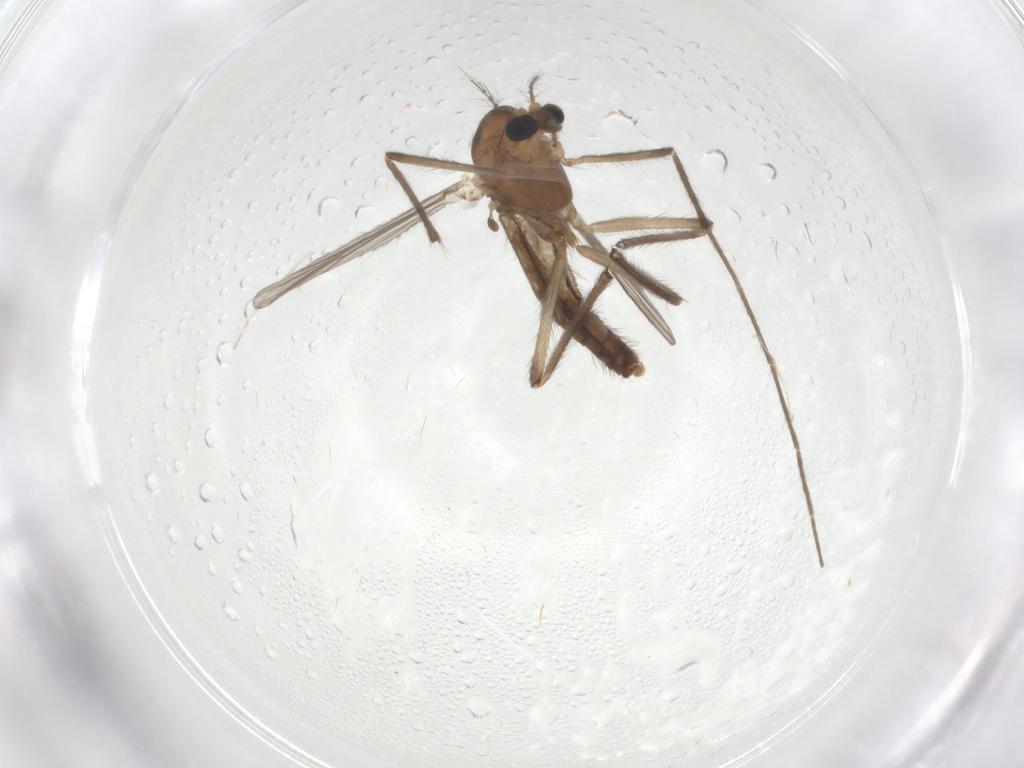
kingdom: Animalia
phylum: Arthropoda
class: Insecta
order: Diptera
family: Chironomidae
